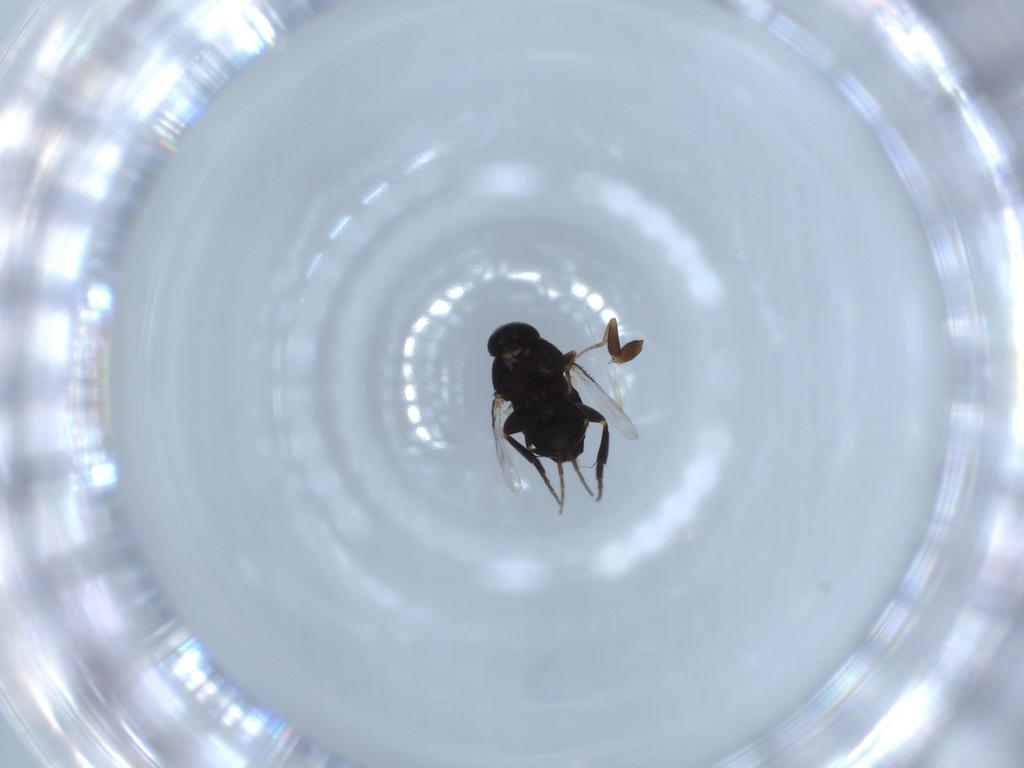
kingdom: Animalia
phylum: Arthropoda
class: Insecta
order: Diptera
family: Phoridae
